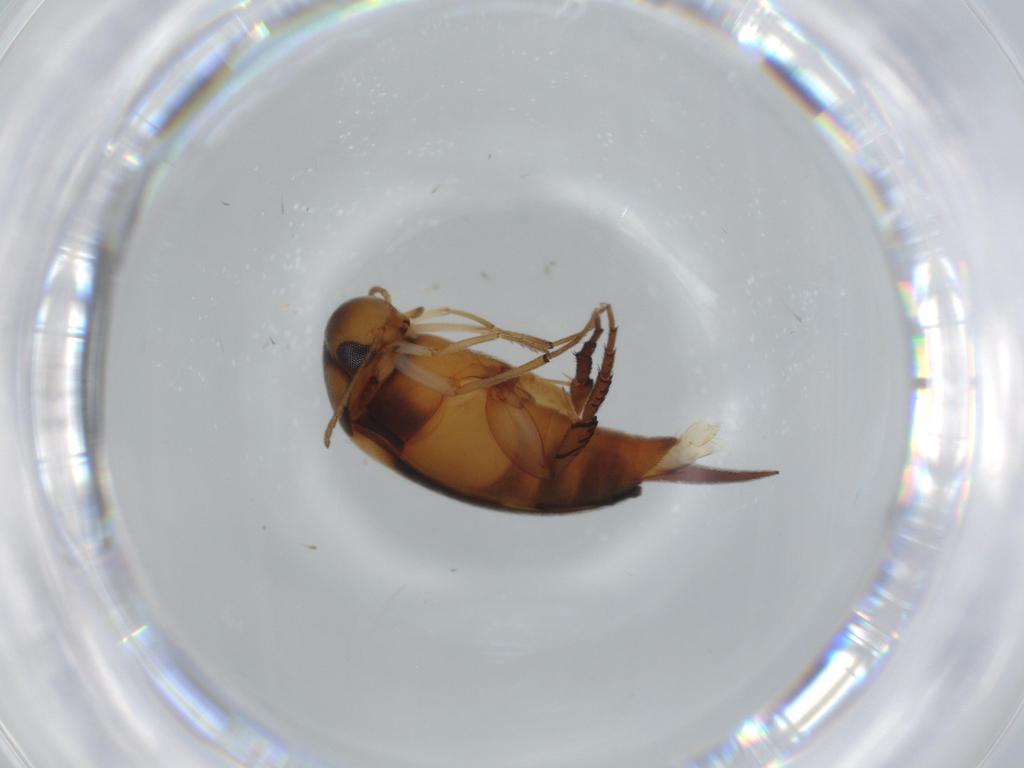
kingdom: Animalia
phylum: Arthropoda
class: Insecta
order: Coleoptera
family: Mordellidae
